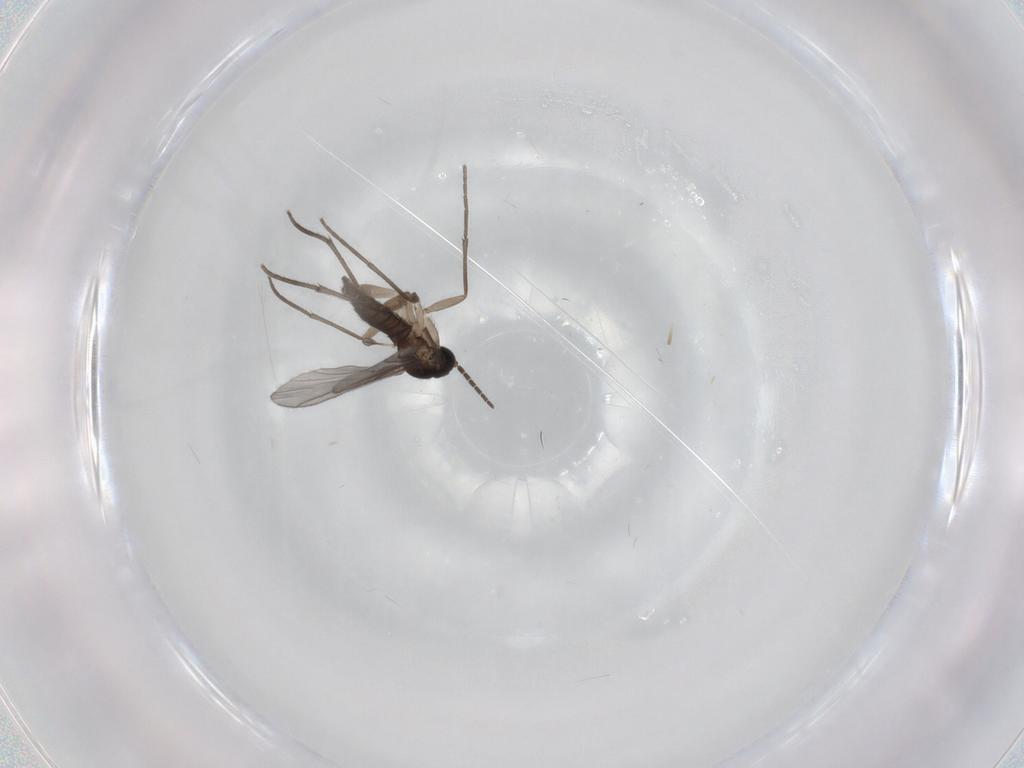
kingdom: Animalia
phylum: Arthropoda
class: Insecta
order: Diptera
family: Sciaridae
